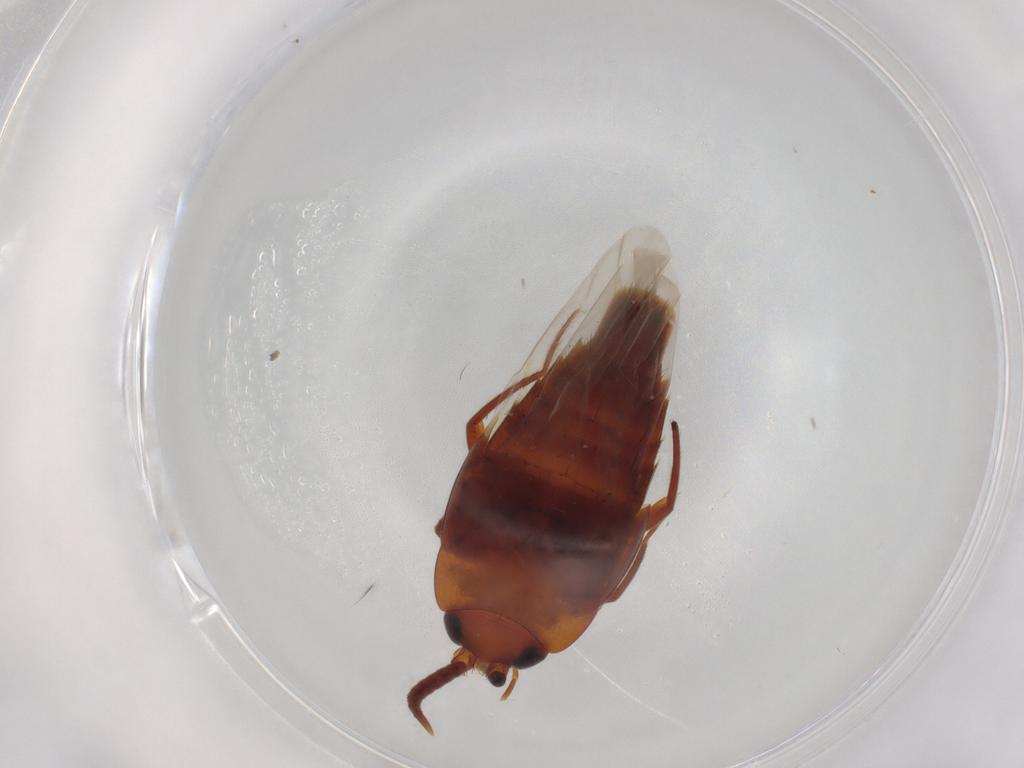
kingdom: Animalia
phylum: Arthropoda
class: Insecta
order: Coleoptera
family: Staphylinidae
